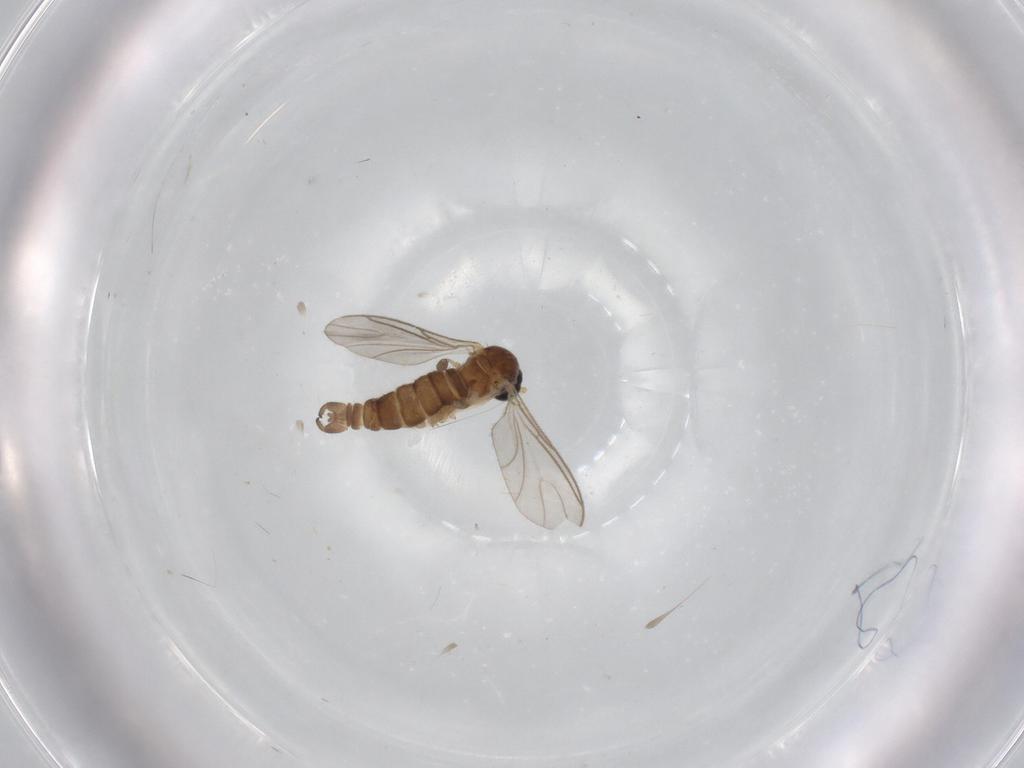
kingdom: Animalia
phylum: Arthropoda
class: Insecta
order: Diptera
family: Sciaridae
